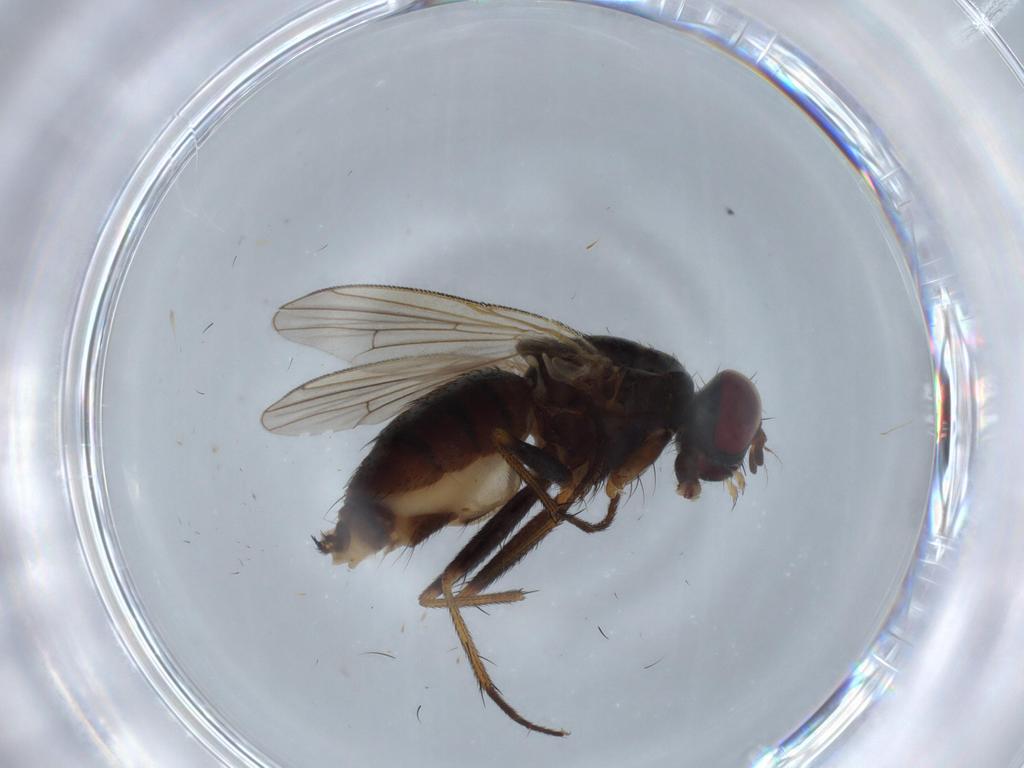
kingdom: Animalia
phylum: Arthropoda
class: Insecta
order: Diptera
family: Muscidae
